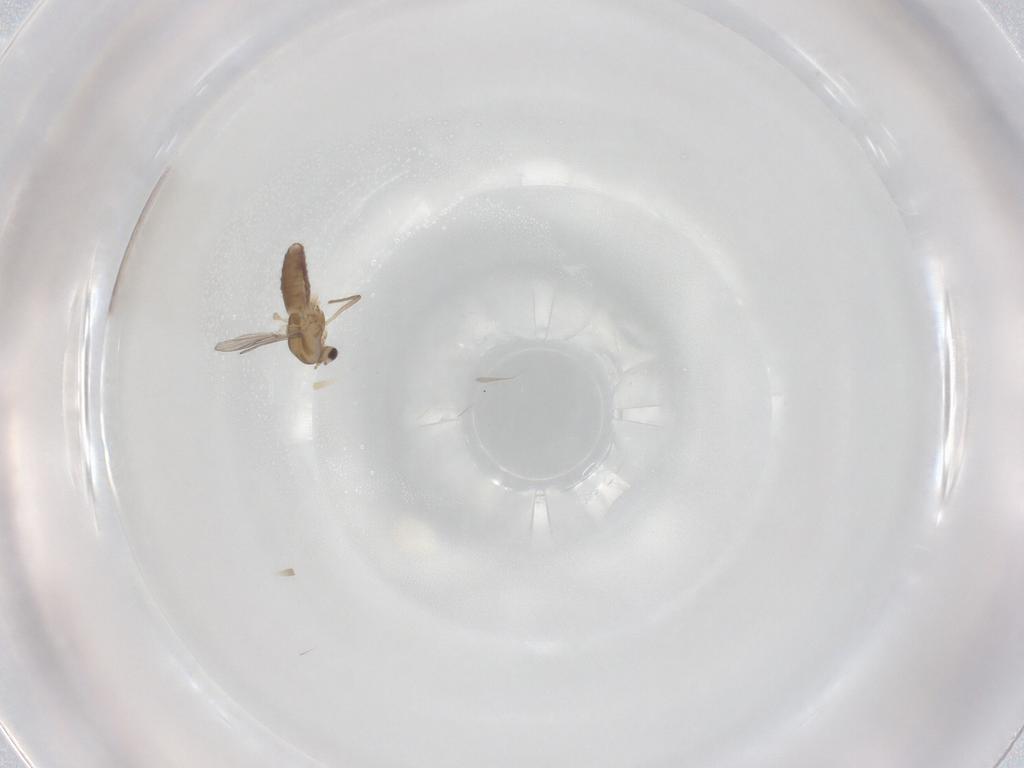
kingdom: Animalia
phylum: Arthropoda
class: Insecta
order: Diptera
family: Chironomidae
